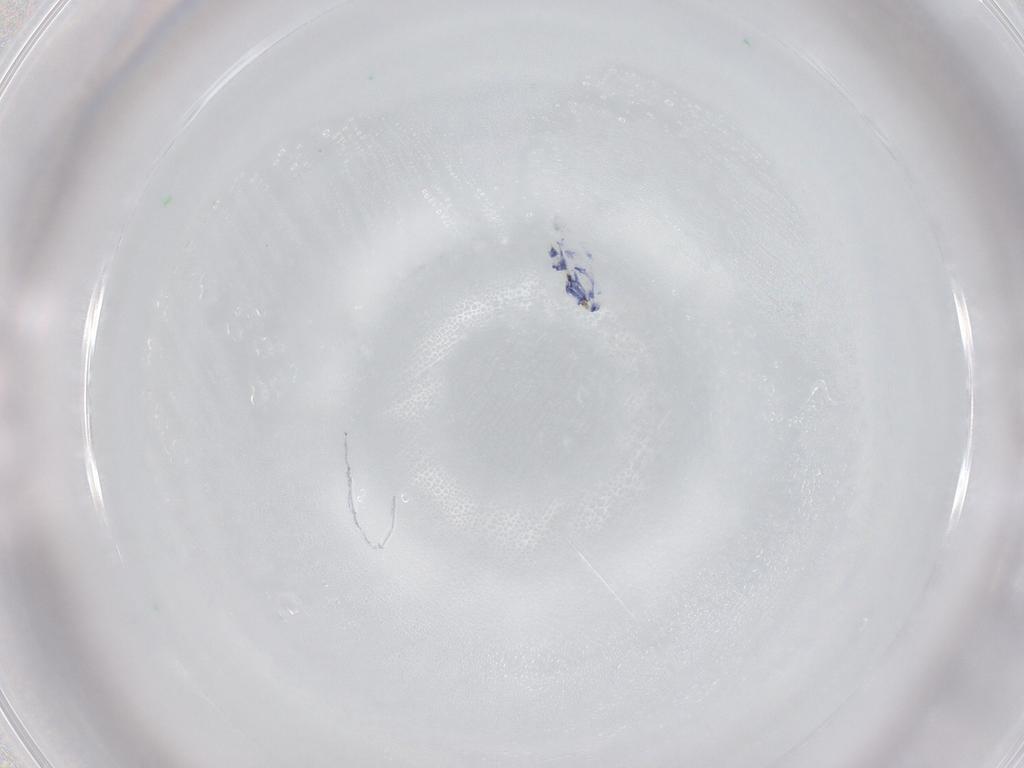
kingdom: Animalia
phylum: Arthropoda
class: Collembola
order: Entomobryomorpha
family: Entomobryidae
